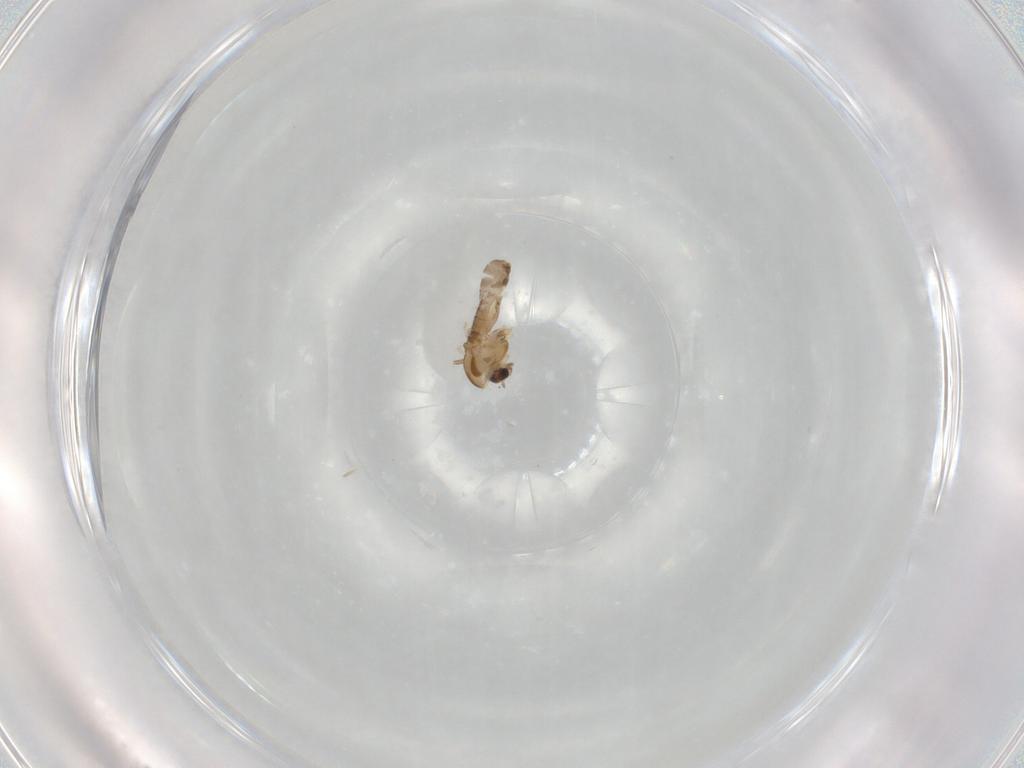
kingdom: Animalia
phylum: Arthropoda
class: Insecta
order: Diptera
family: Chironomidae
